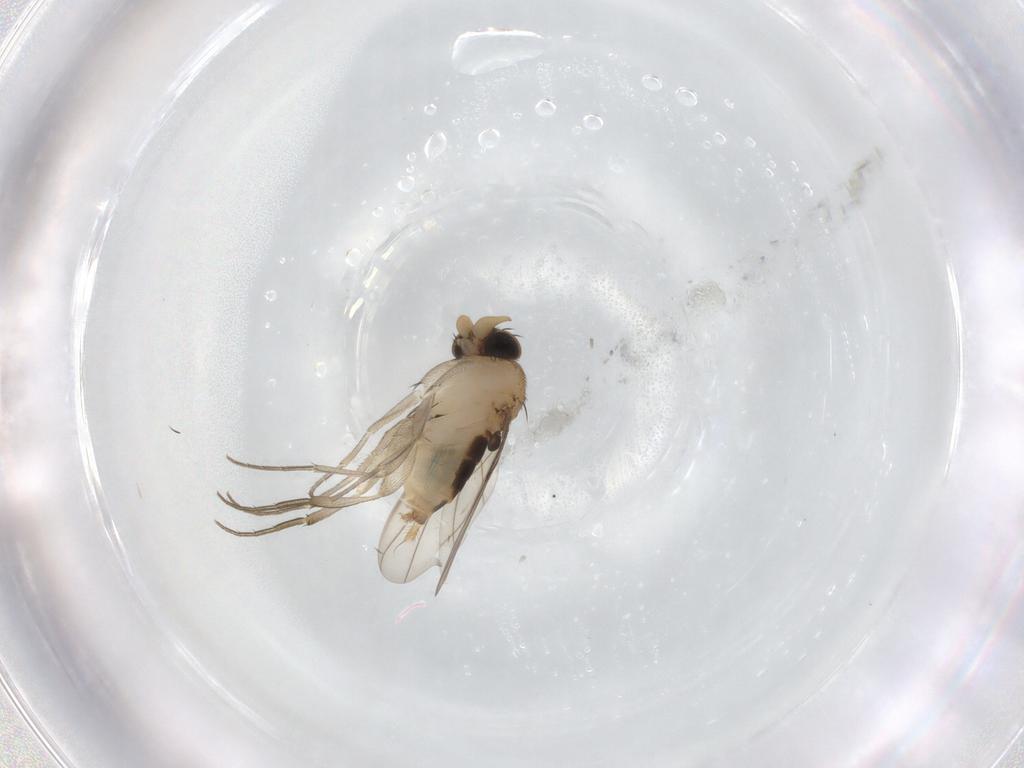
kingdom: Animalia
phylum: Arthropoda
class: Insecta
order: Diptera
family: Phoridae
